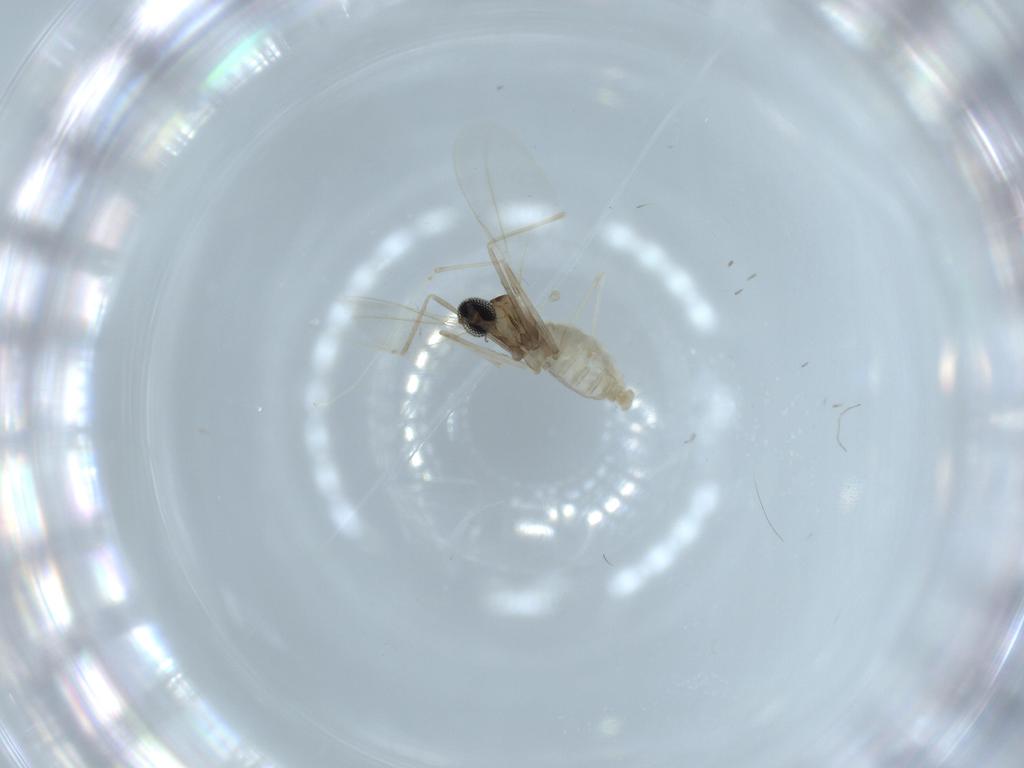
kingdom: Animalia
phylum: Arthropoda
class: Insecta
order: Diptera
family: Cecidomyiidae
